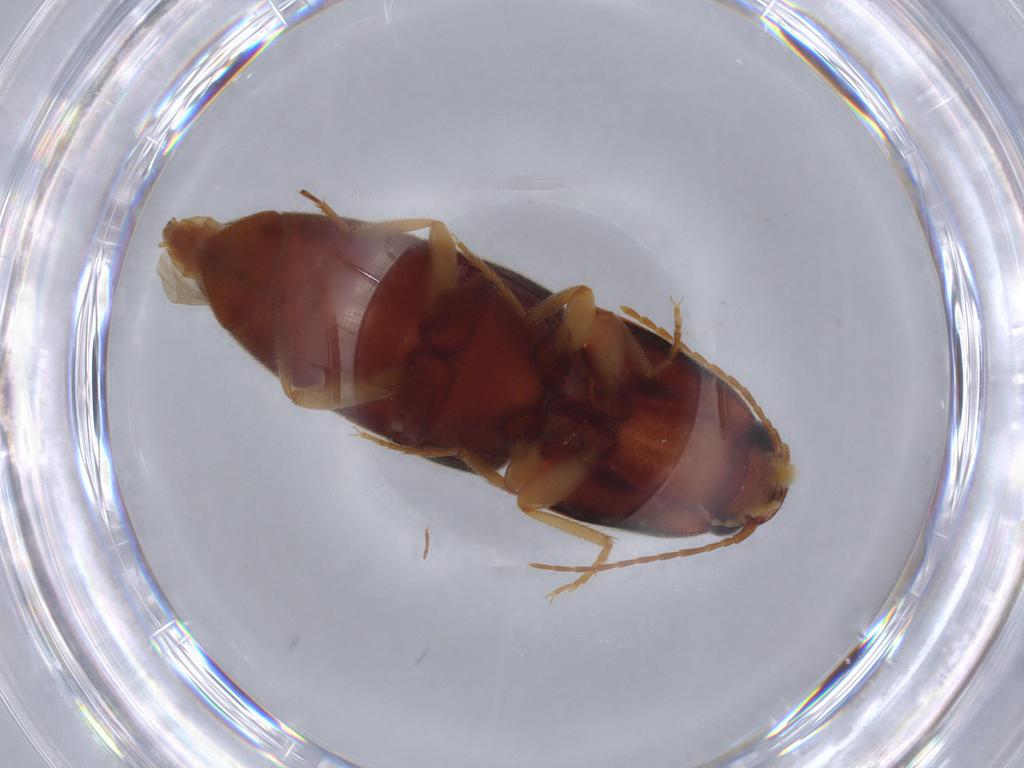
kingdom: Animalia
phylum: Arthropoda
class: Insecta
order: Coleoptera
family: Elateridae
